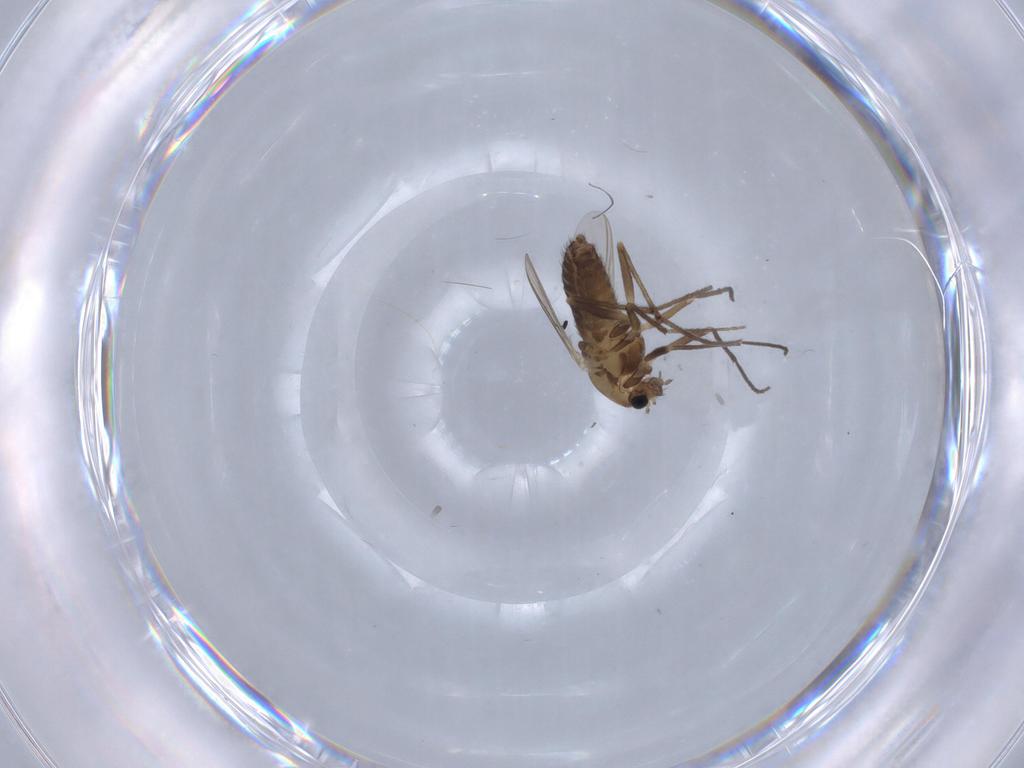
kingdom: Animalia
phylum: Arthropoda
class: Insecta
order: Diptera
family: Chironomidae
